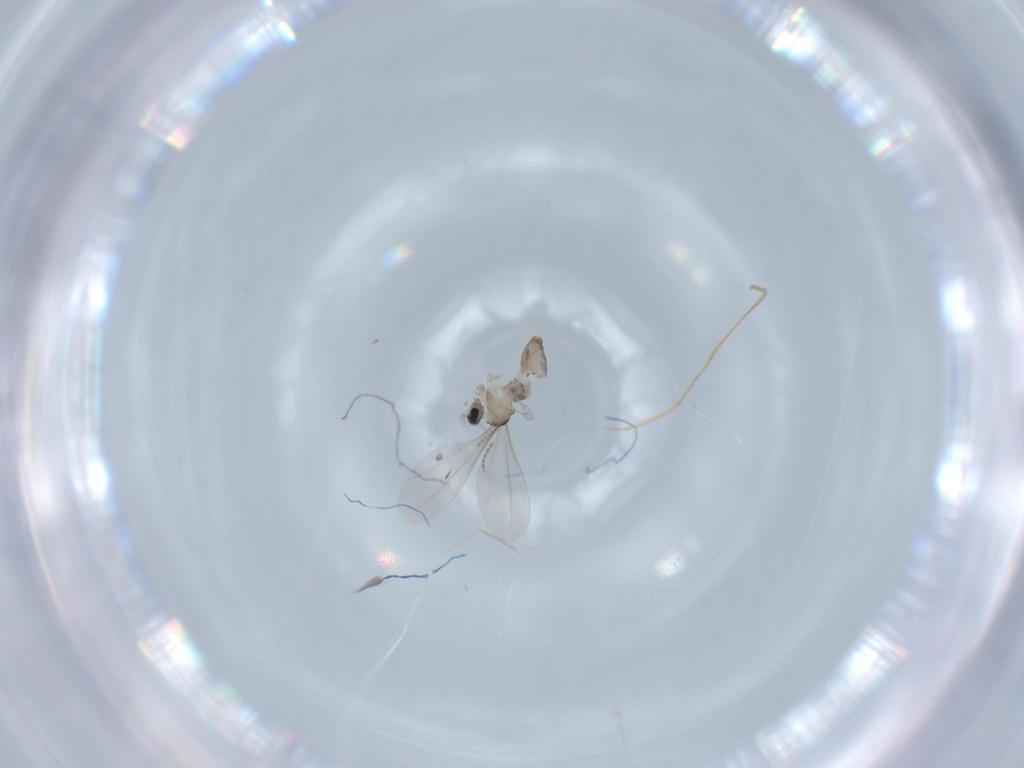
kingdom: Animalia
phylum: Arthropoda
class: Insecta
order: Diptera
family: Cecidomyiidae
